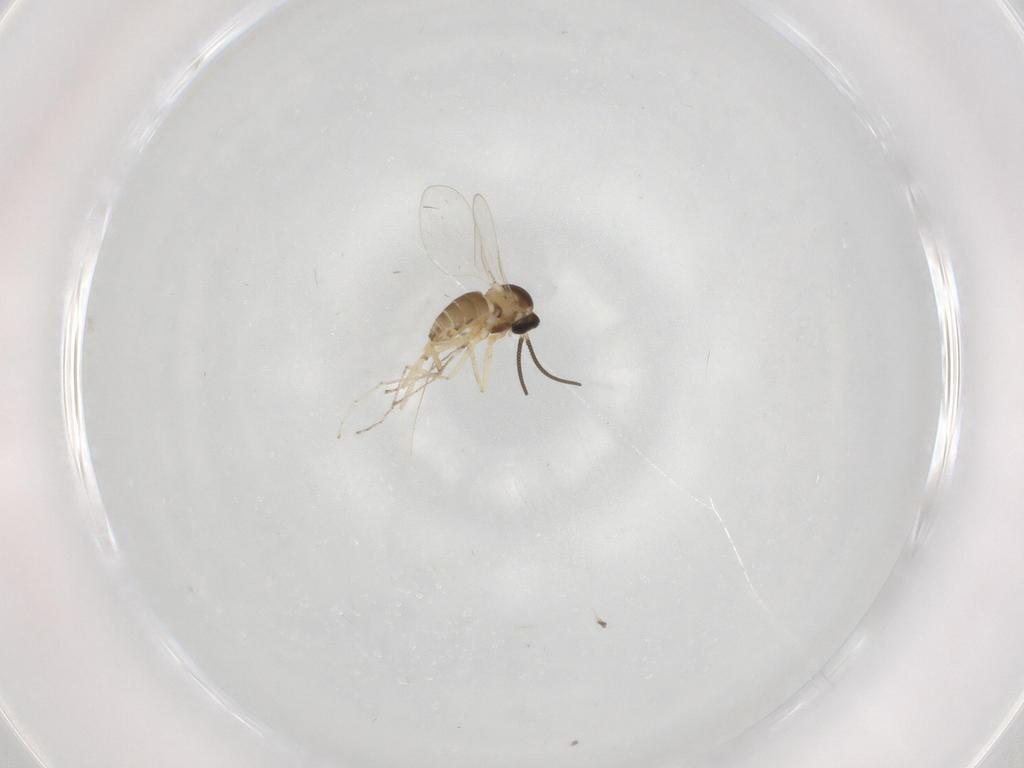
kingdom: Animalia
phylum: Arthropoda
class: Insecta
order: Diptera
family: Cecidomyiidae
